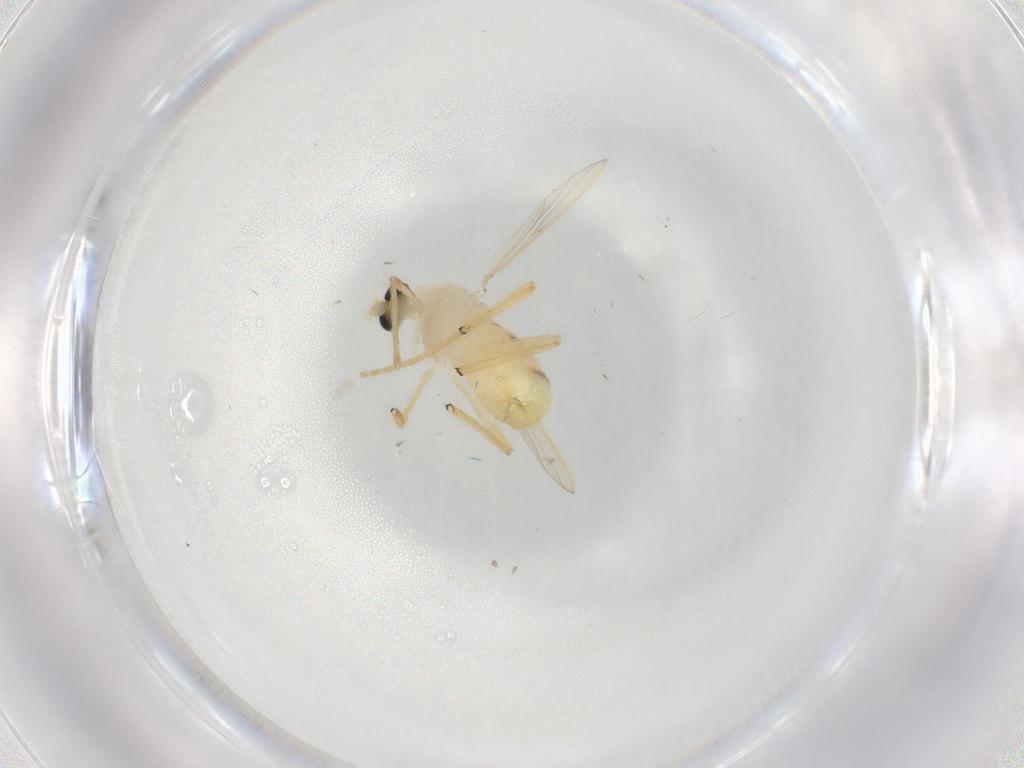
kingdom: Animalia
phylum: Arthropoda
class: Insecta
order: Diptera
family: Chironomidae
